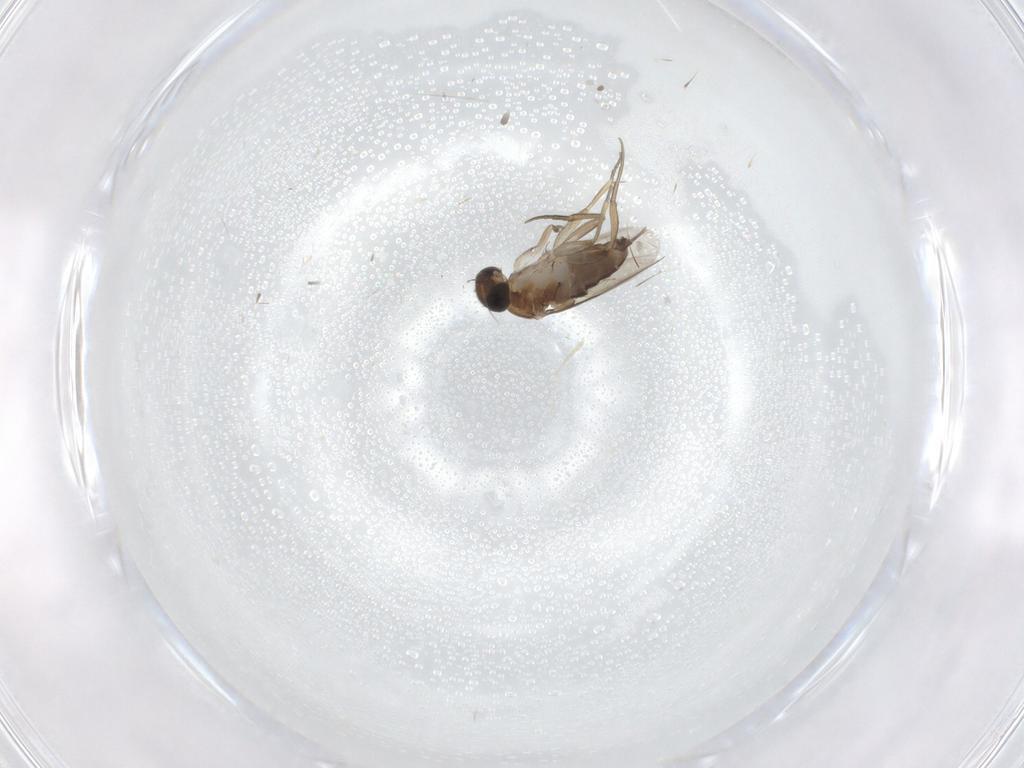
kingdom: Animalia
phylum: Arthropoda
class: Insecta
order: Diptera
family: Phoridae
